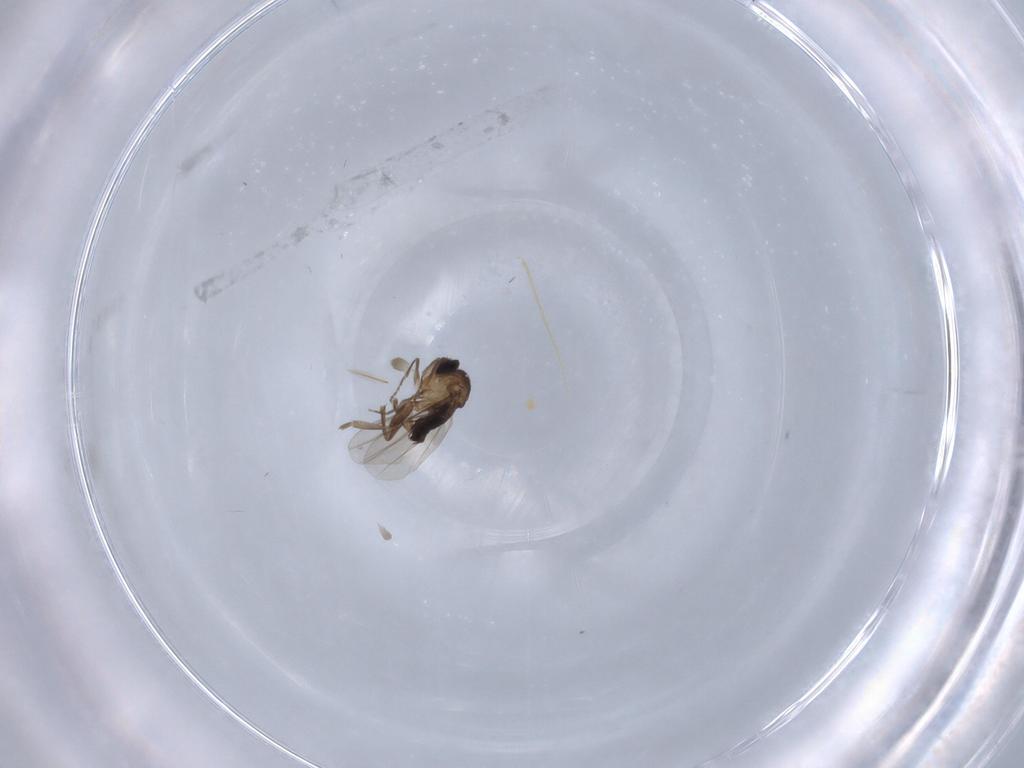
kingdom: Animalia
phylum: Arthropoda
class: Insecta
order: Diptera
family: Chironomidae
